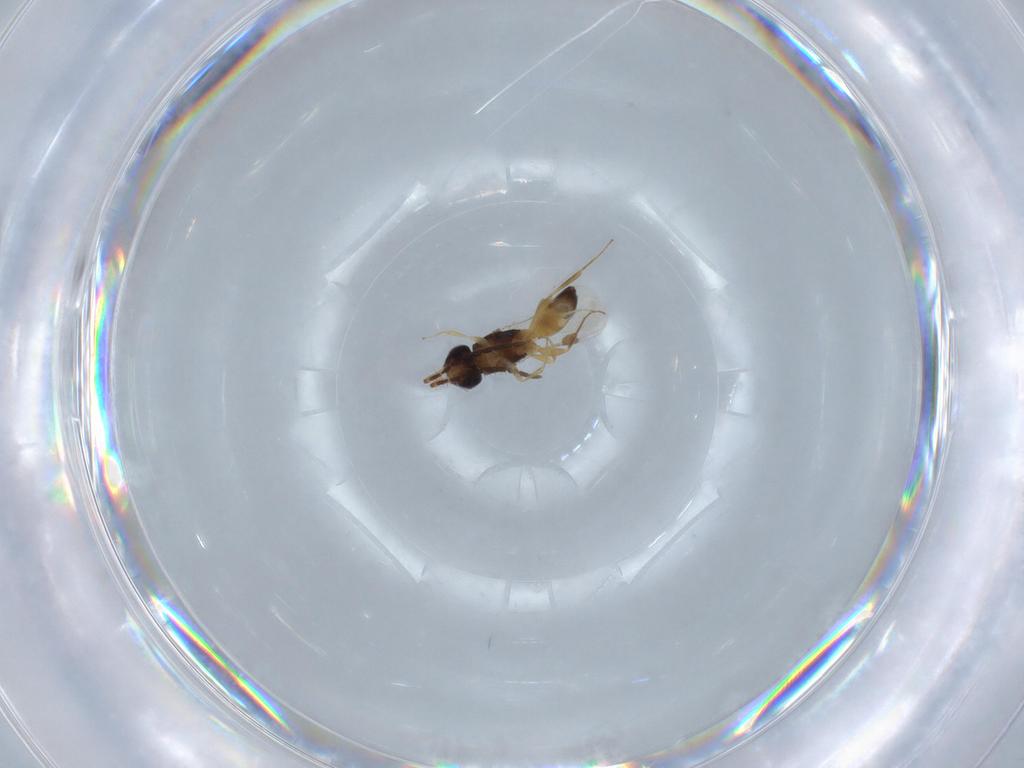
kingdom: Animalia
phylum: Arthropoda
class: Insecta
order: Hymenoptera
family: Megaspilidae
